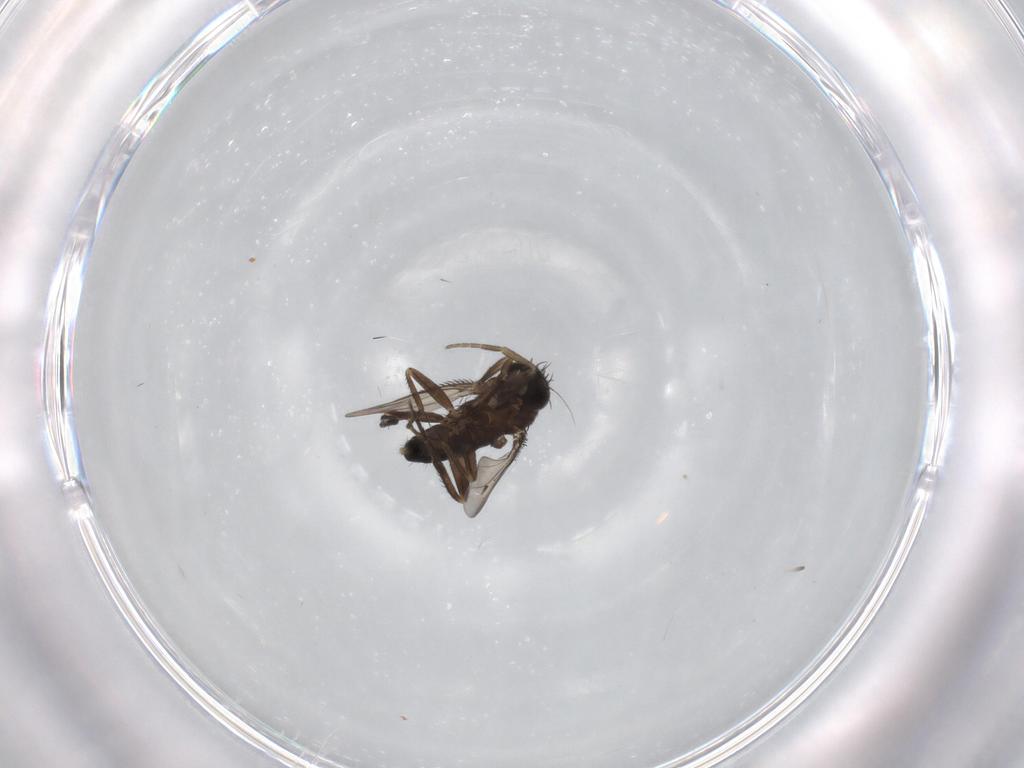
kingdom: Animalia
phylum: Arthropoda
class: Insecta
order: Diptera
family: Phoridae
